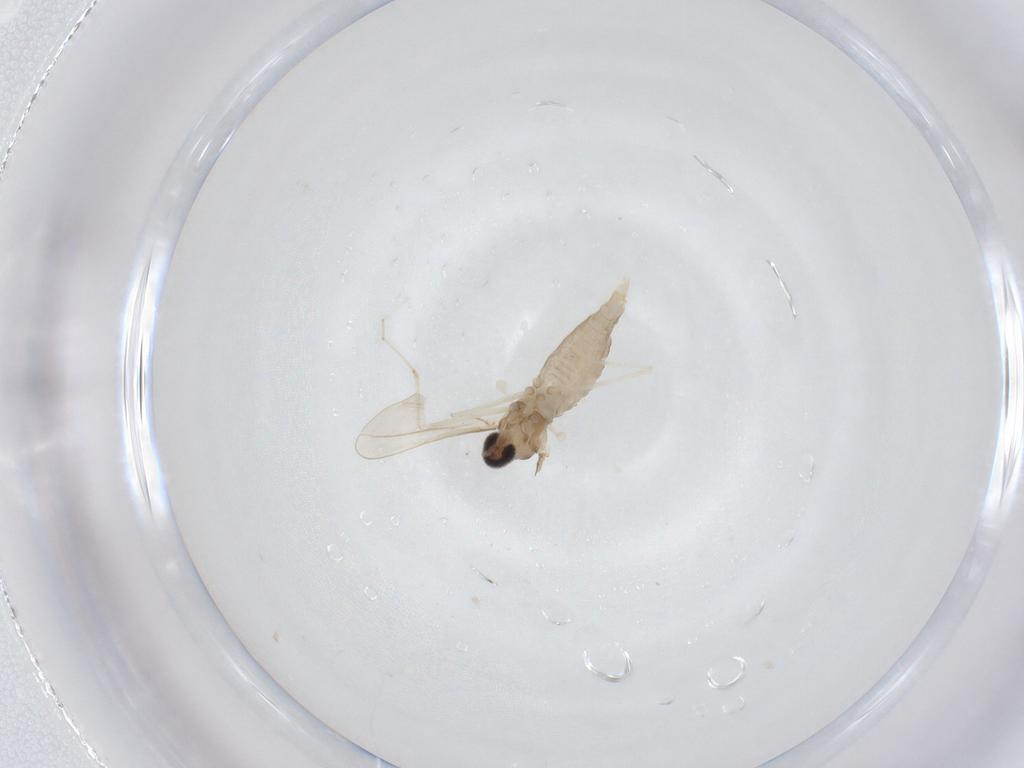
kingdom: Animalia
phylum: Arthropoda
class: Insecta
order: Diptera
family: Cecidomyiidae
